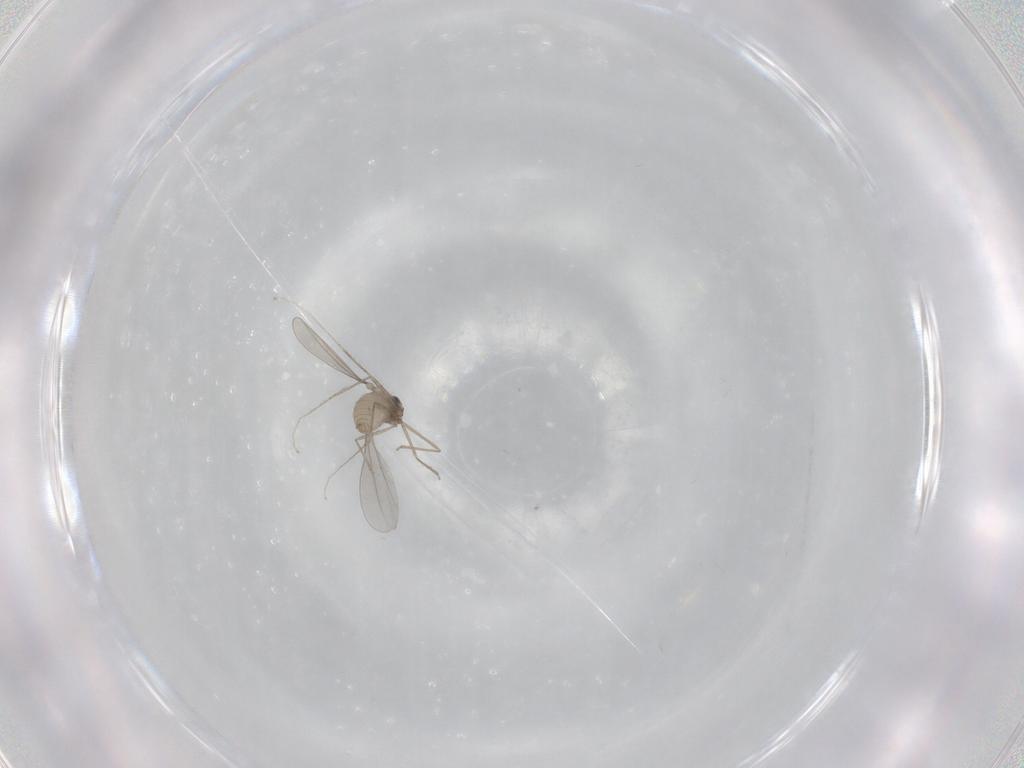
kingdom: Animalia
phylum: Arthropoda
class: Insecta
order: Diptera
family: Cecidomyiidae
